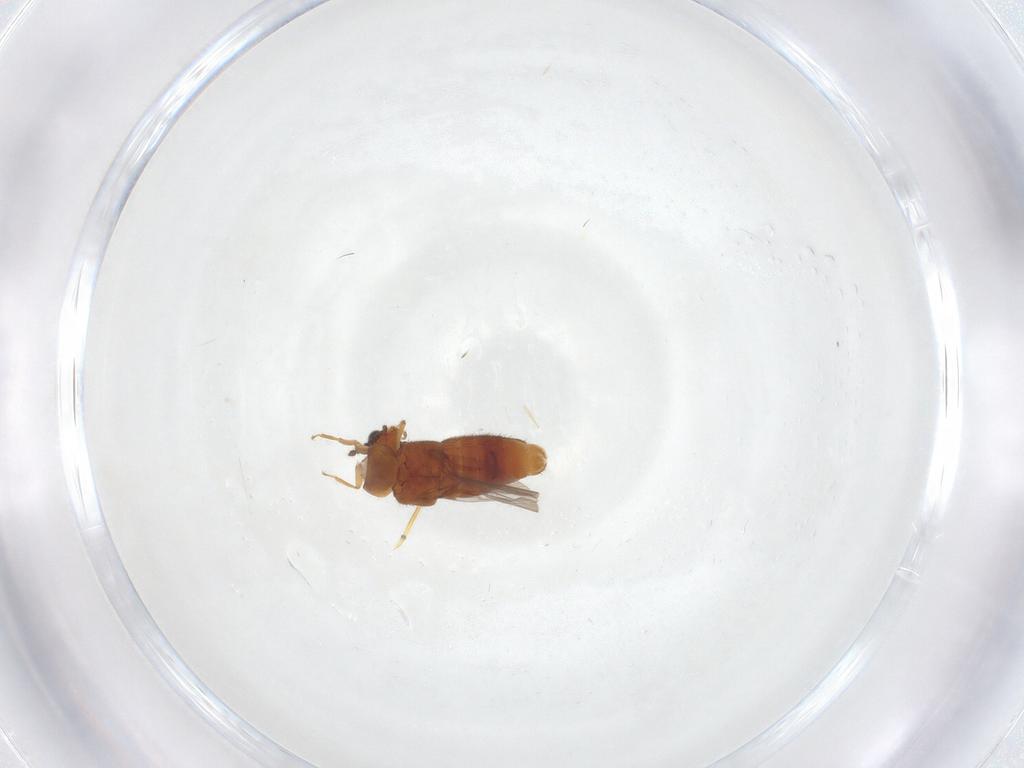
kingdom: Animalia
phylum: Arthropoda
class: Insecta
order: Coleoptera
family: Staphylinidae
